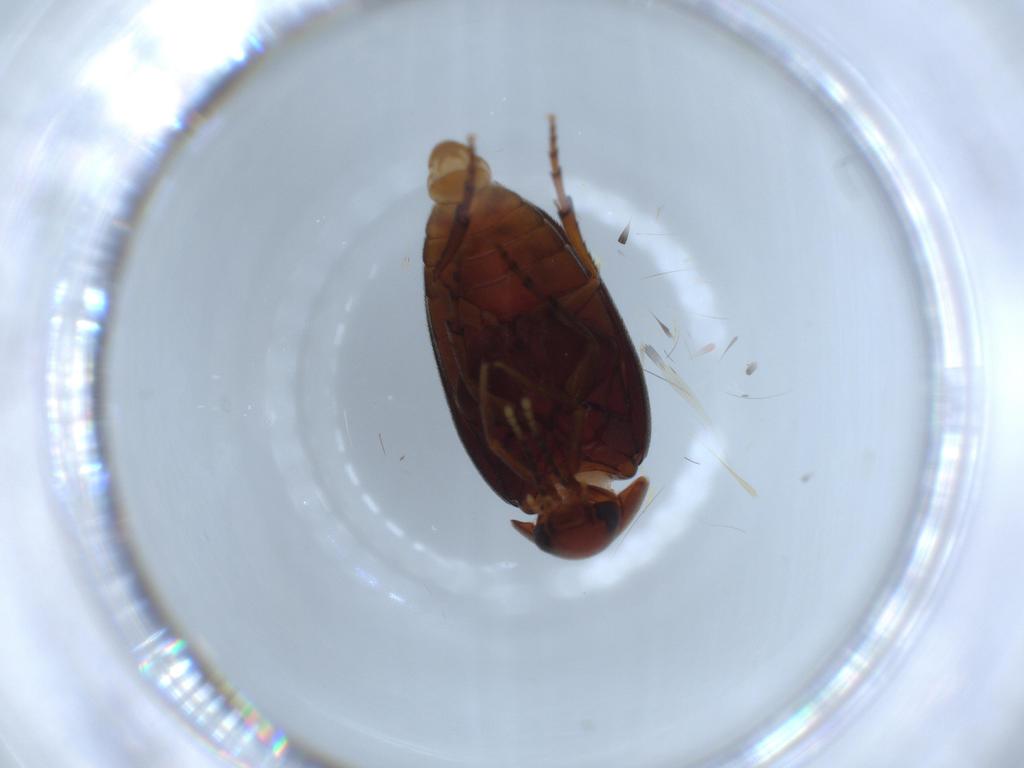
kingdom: Animalia
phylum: Arthropoda
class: Insecta
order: Coleoptera
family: Eucinetidae
